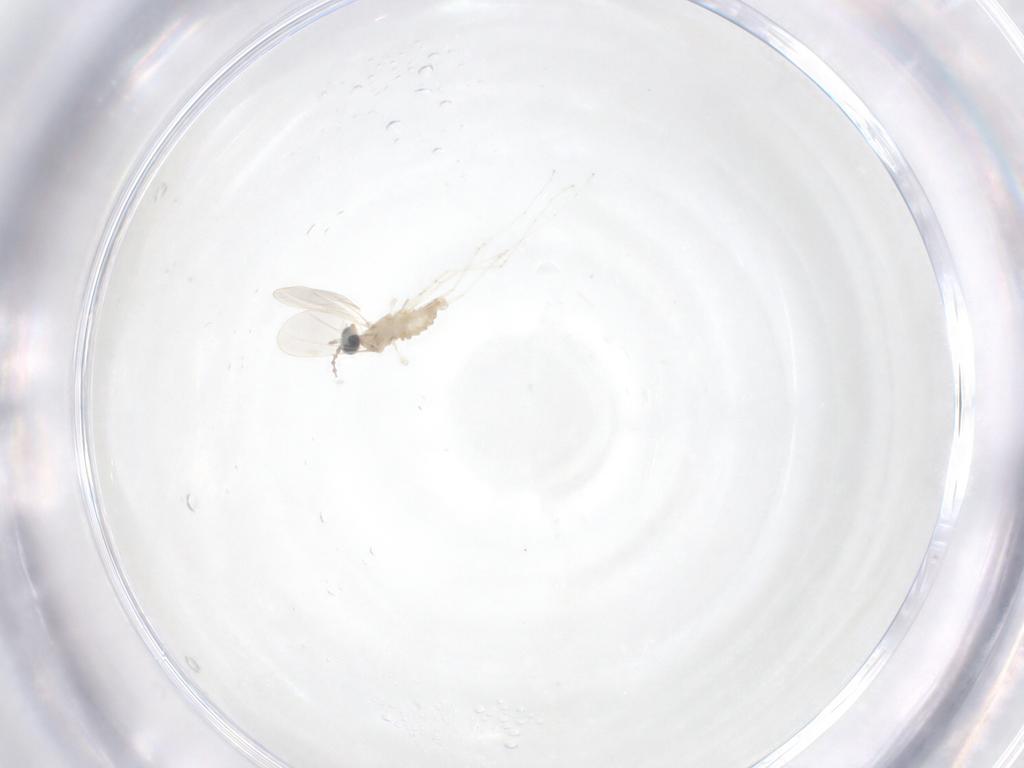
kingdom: Animalia
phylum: Arthropoda
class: Insecta
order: Diptera
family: Cecidomyiidae
